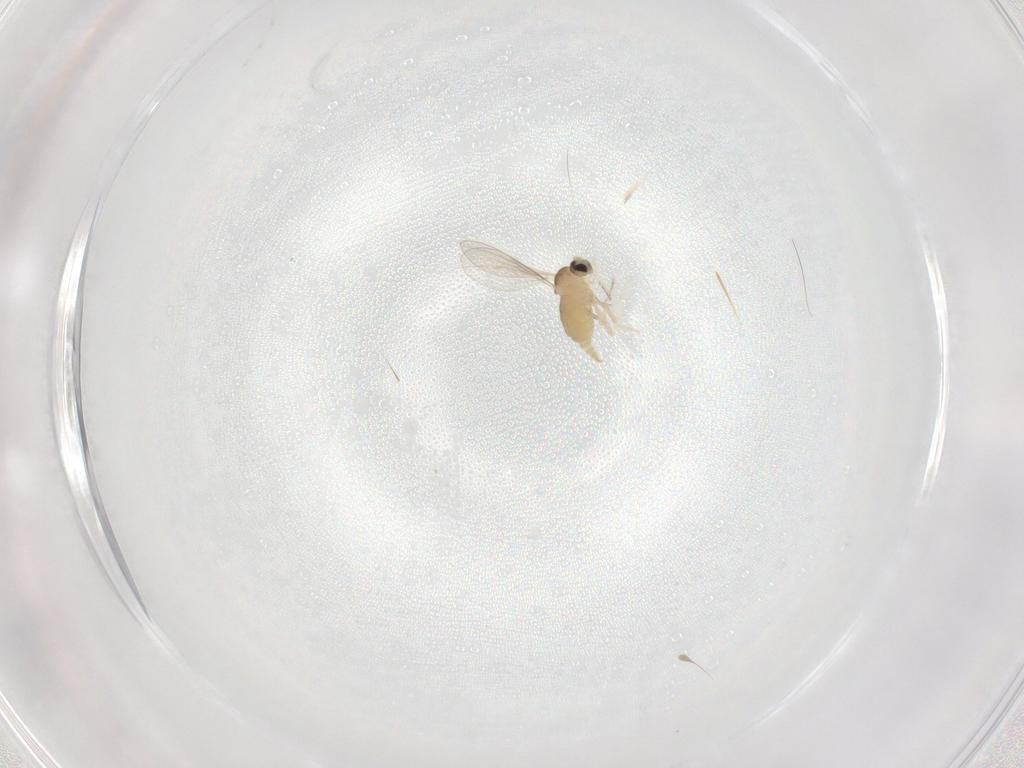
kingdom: Animalia
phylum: Arthropoda
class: Insecta
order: Diptera
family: Cecidomyiidae
